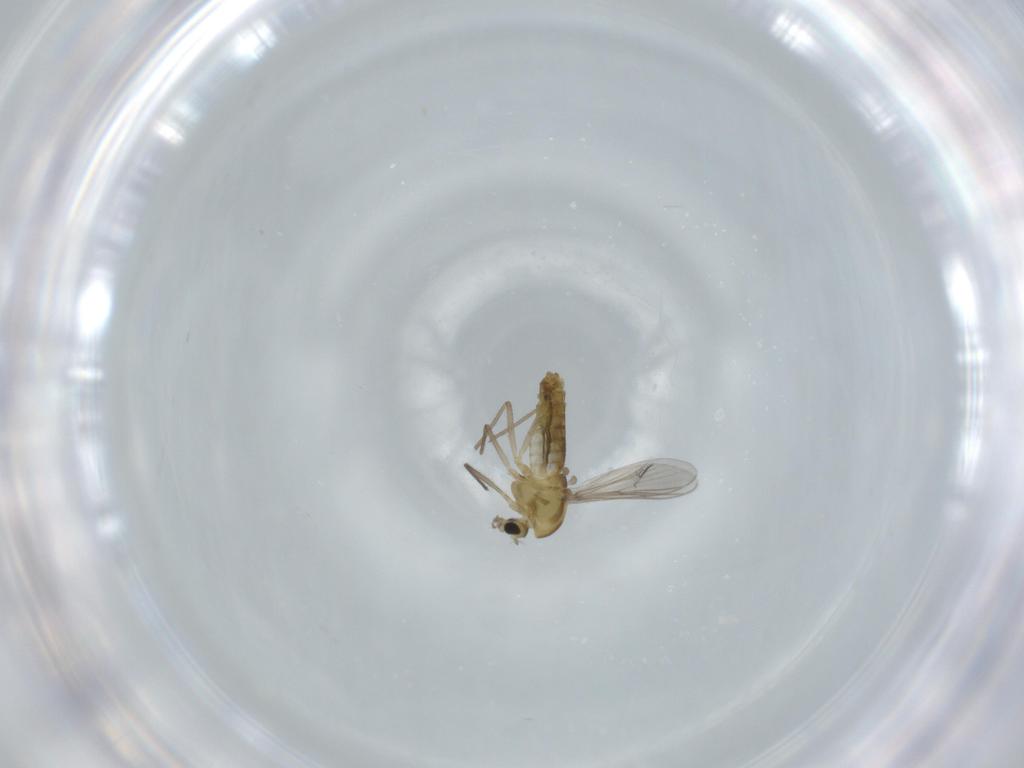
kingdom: Animalia
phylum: Arthropoda
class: Insecta
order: Diptera
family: Chironomidae
